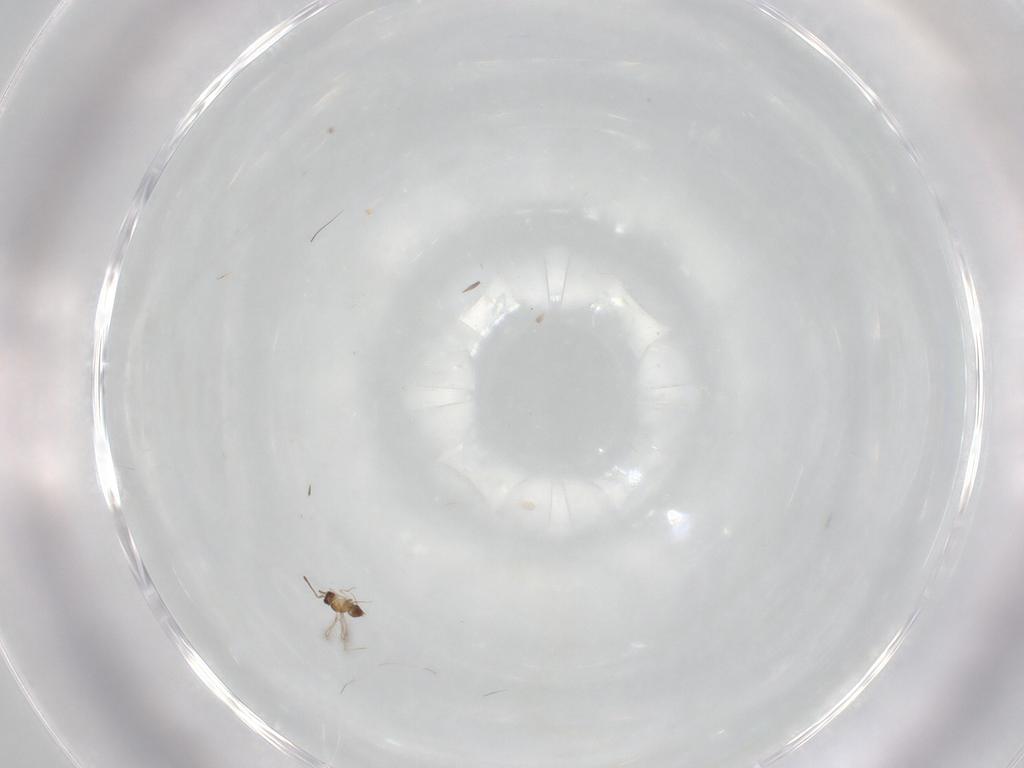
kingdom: Animalia
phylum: Arthropoda
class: Insecta
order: Hymenoptera
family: Mymaridae
